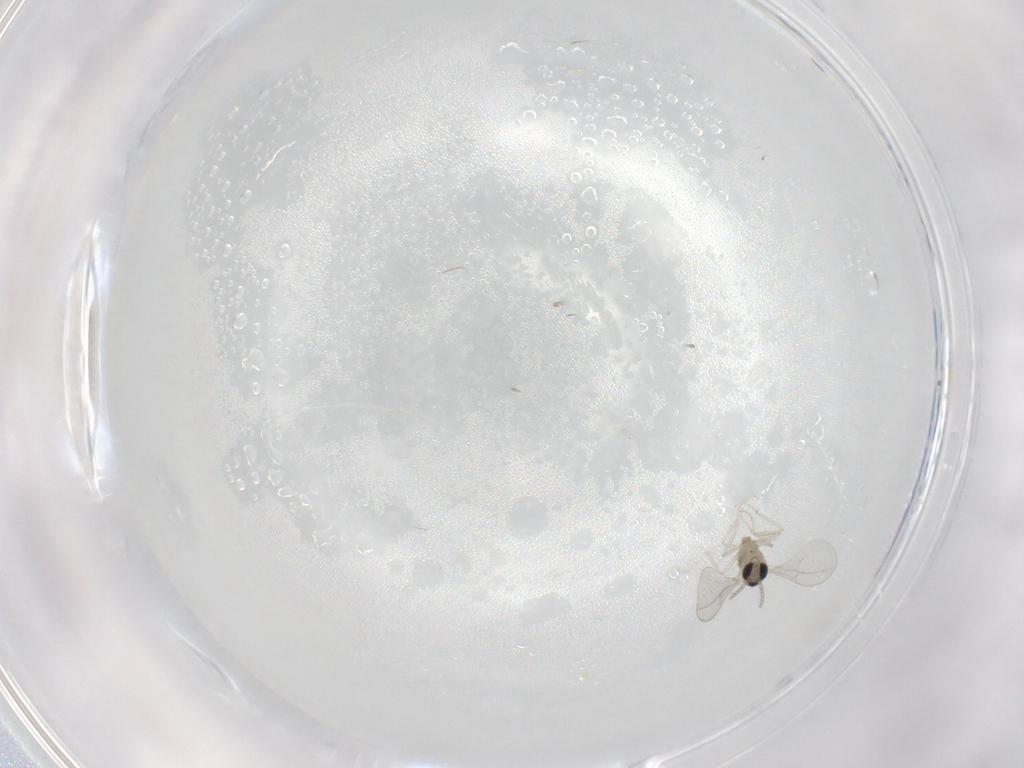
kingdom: Animalia
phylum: Arthropoda
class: Insecta
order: Diptera
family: Cecidomyiidae
